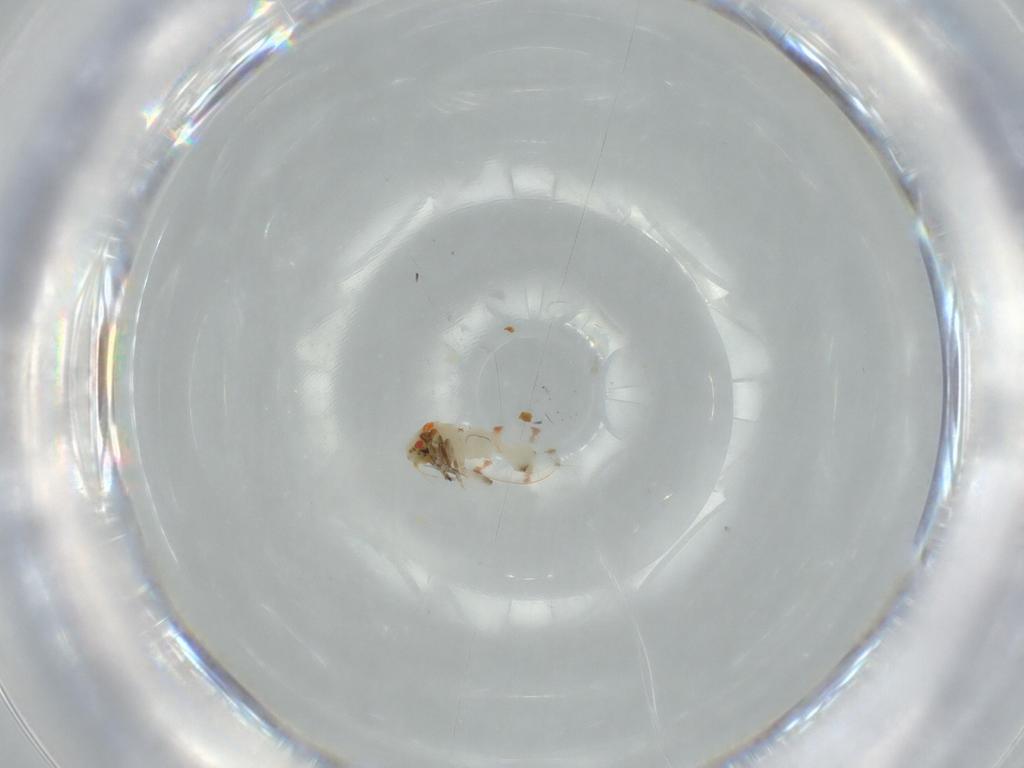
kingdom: Animalia
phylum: Arthropoda
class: Insecta
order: Hemiptera
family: Aleyrodidae
